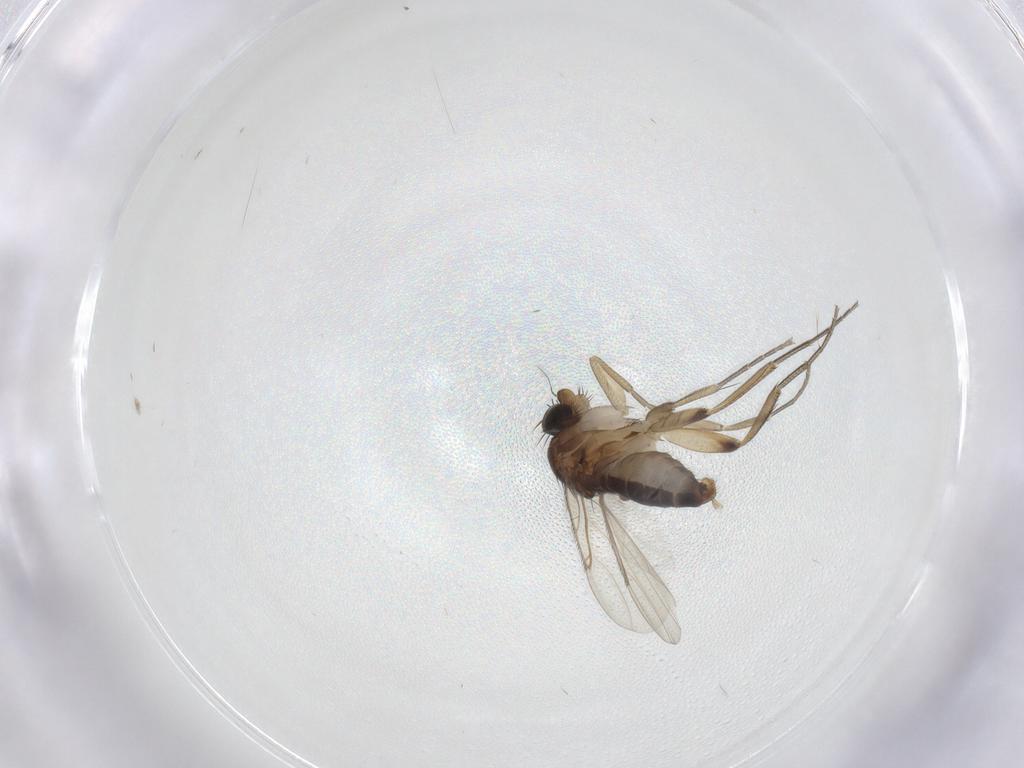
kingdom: Animalia
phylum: Arthropoda
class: Insecta
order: Diptera
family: Phoridae
